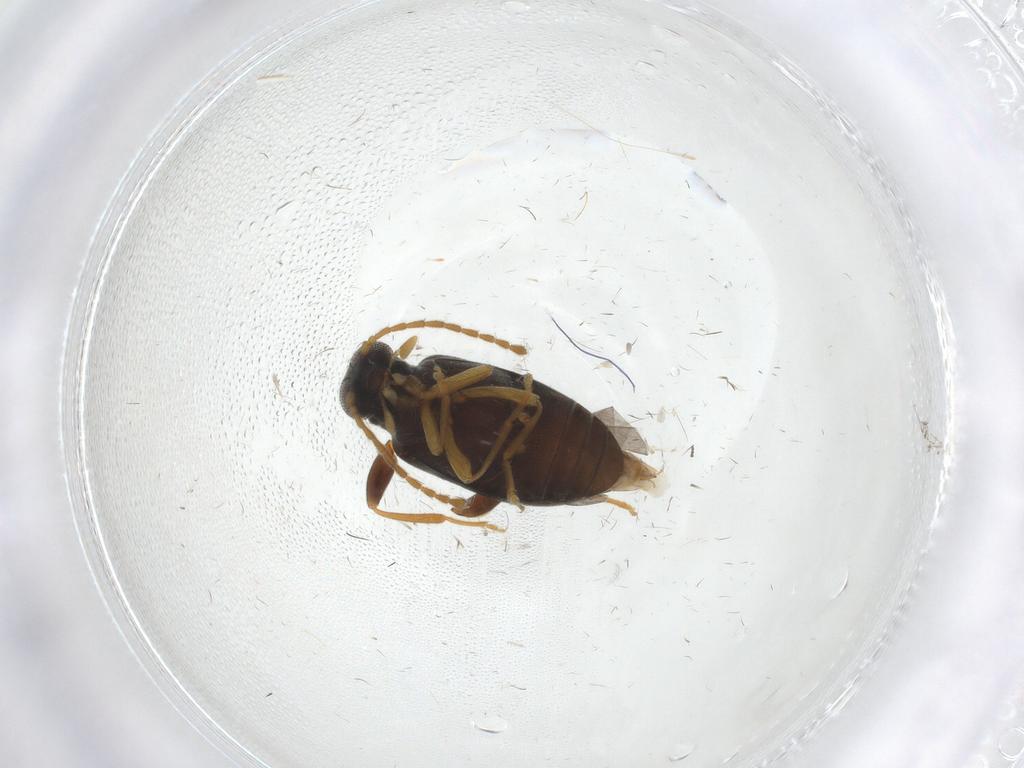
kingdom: Animalia
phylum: Arthropoda
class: Insecta
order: Coleoptera
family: Aderidae
